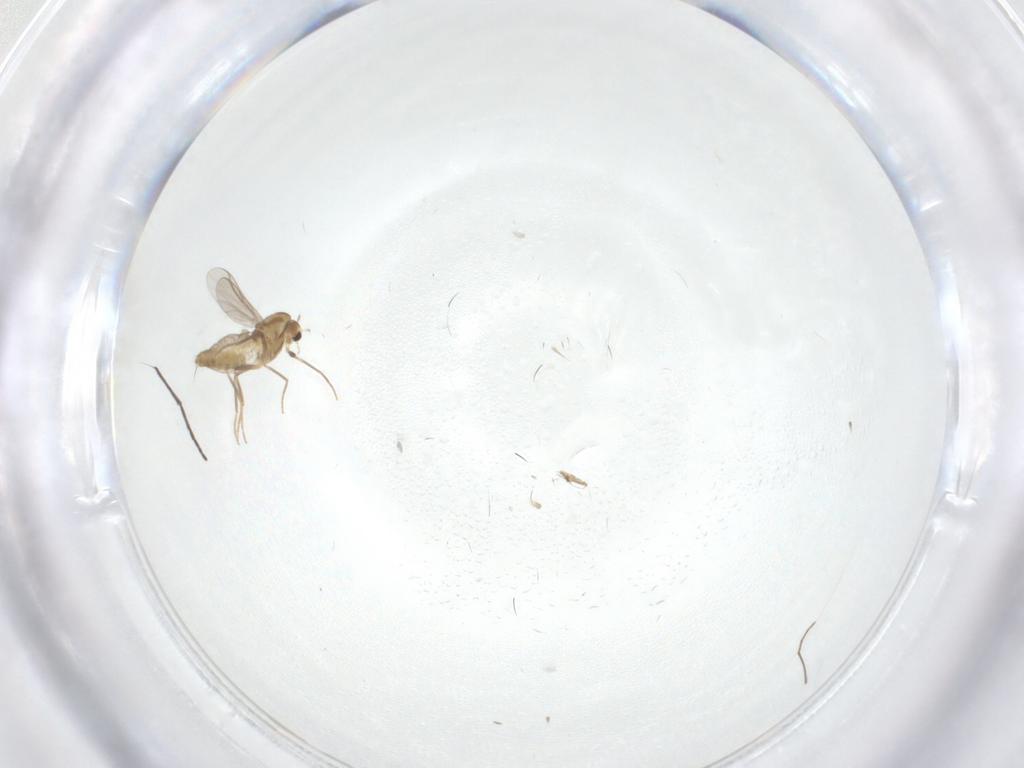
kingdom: Animalia
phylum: Arthropoda
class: Insecta
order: Diptera
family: Mycetophilidae
